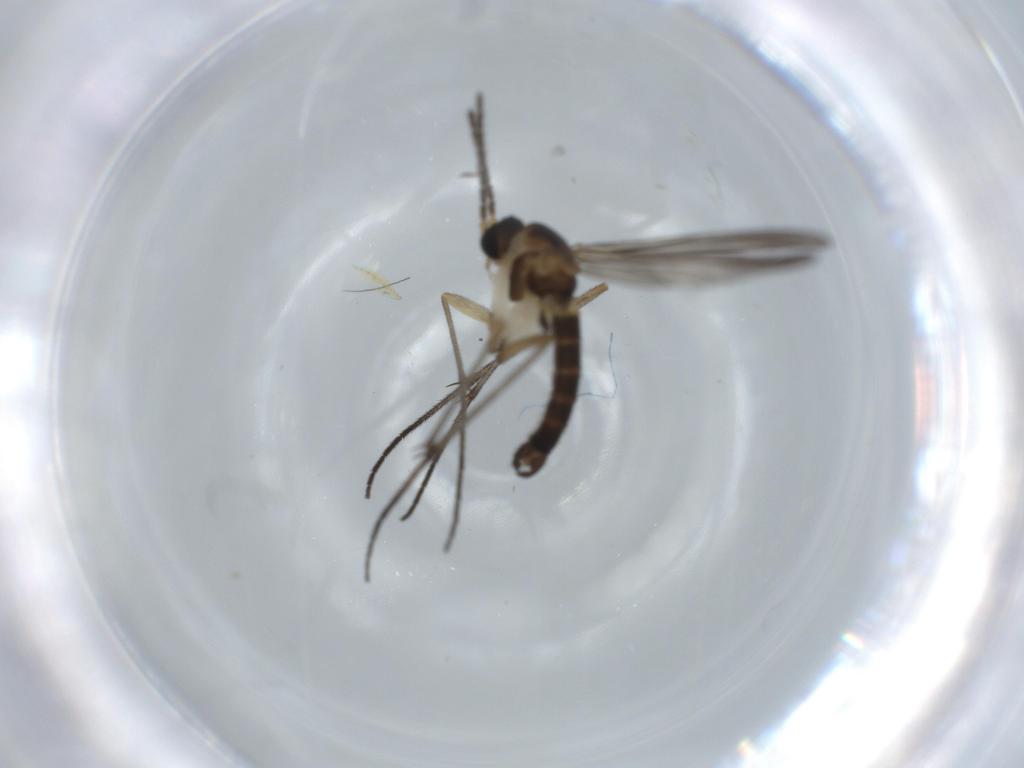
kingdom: Animalia
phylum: Arthropoda
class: Insecta
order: Diptera
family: Sciaridae
